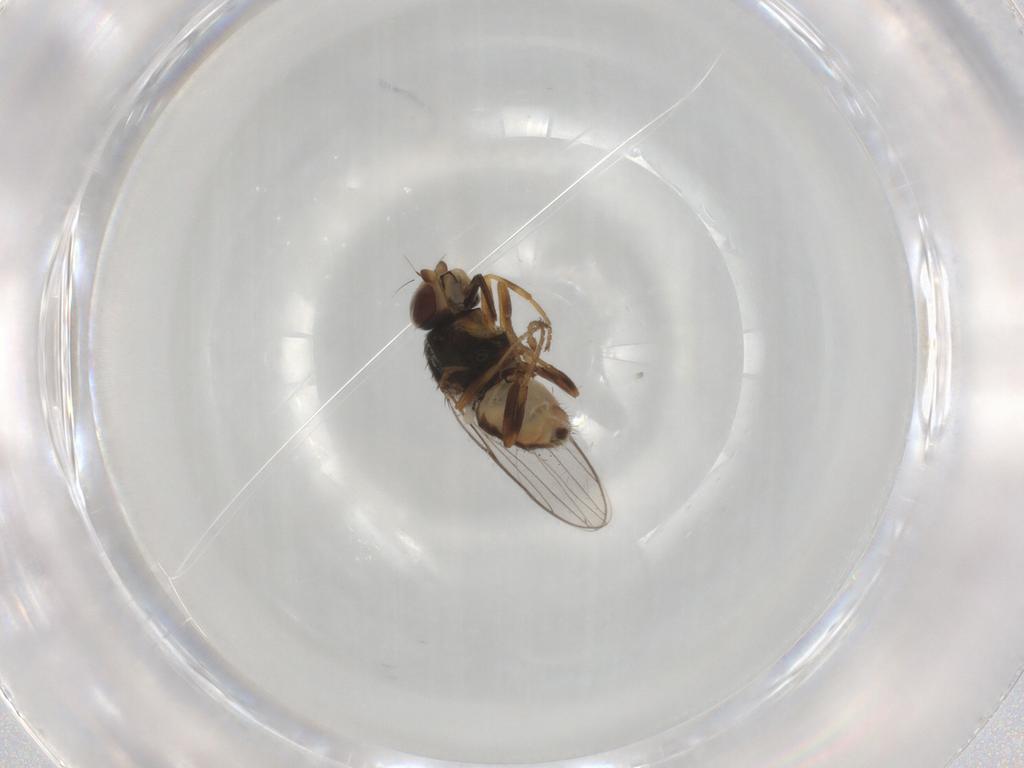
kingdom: Animalia
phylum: Arthropoda
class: Insecta
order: Diptera
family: Chloropidae
